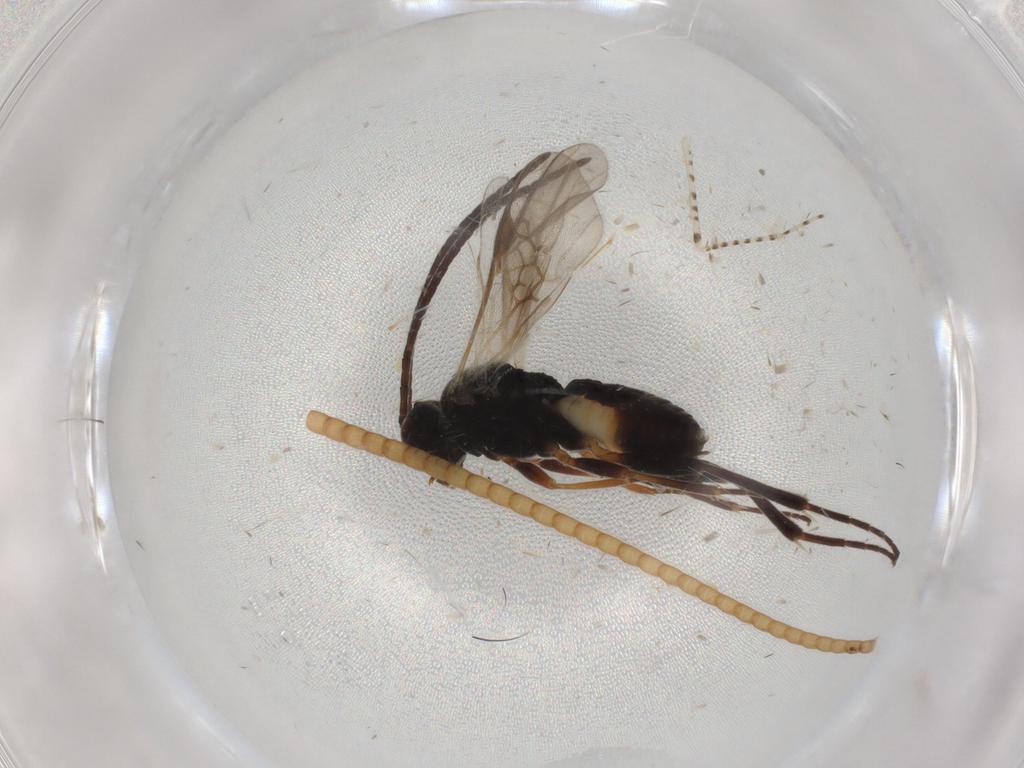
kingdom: Animalia
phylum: Arthropoda
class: Insecta
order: Hymenoptera
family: Braconidae
